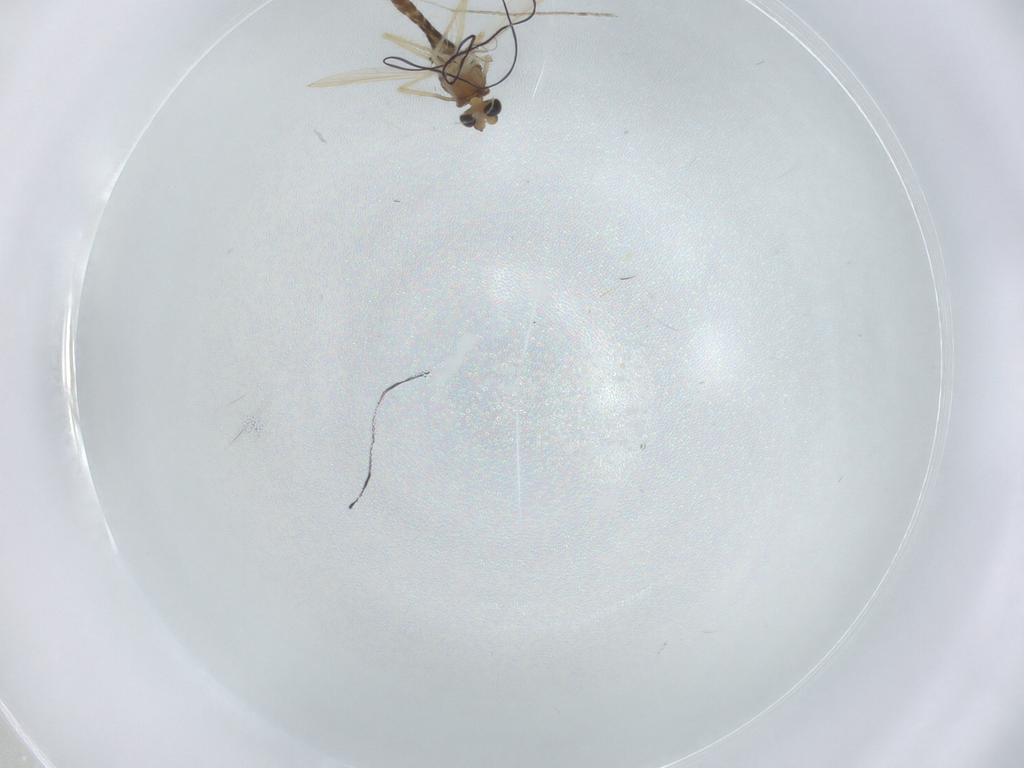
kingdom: Animalia
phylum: Arthropoda
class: Insecta
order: Diptera
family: Chironomidae
